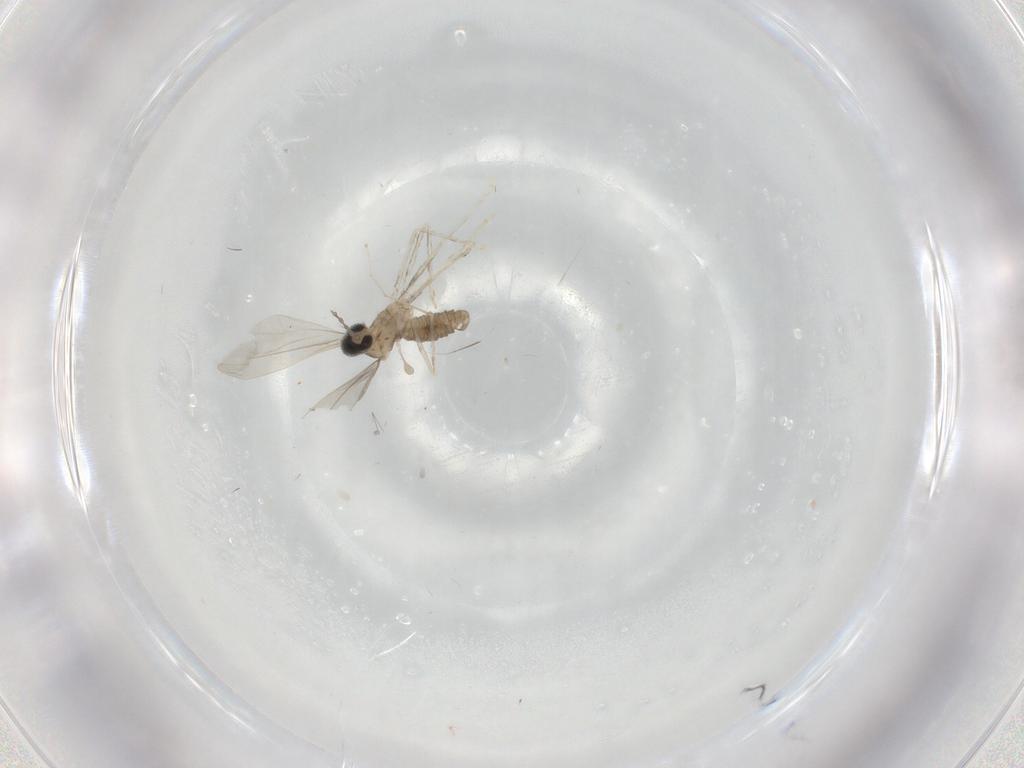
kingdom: Animalia
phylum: Arthropoda
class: Insecta
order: Diptera
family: Cecidomyiidae
